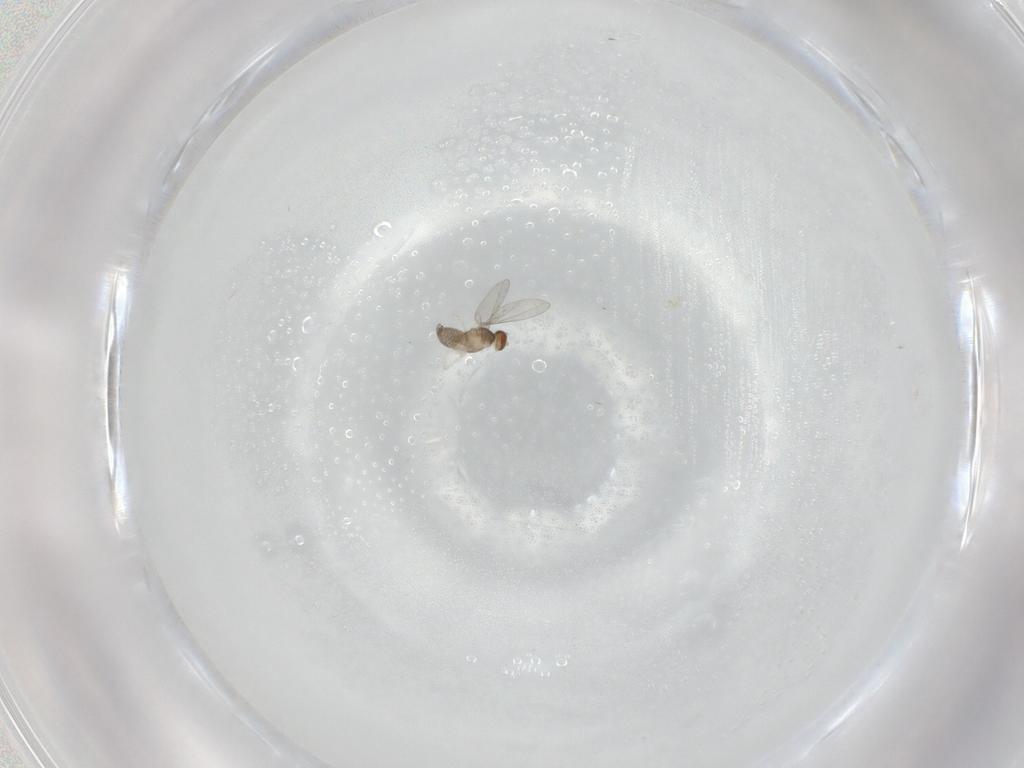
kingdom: Animalia
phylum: Arthropoda
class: Insecta
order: Diptera
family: Cecidomyiidae
